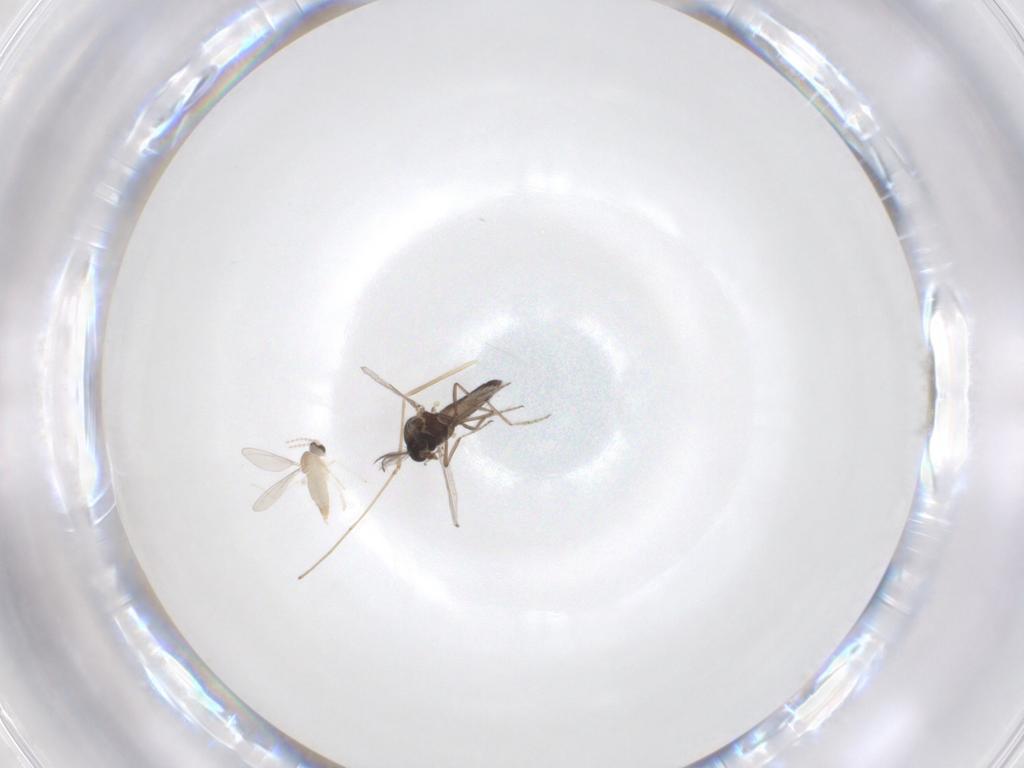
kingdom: Animalia
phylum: Arthropoda
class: Insecta
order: Diptera
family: Cecidomyiidae
